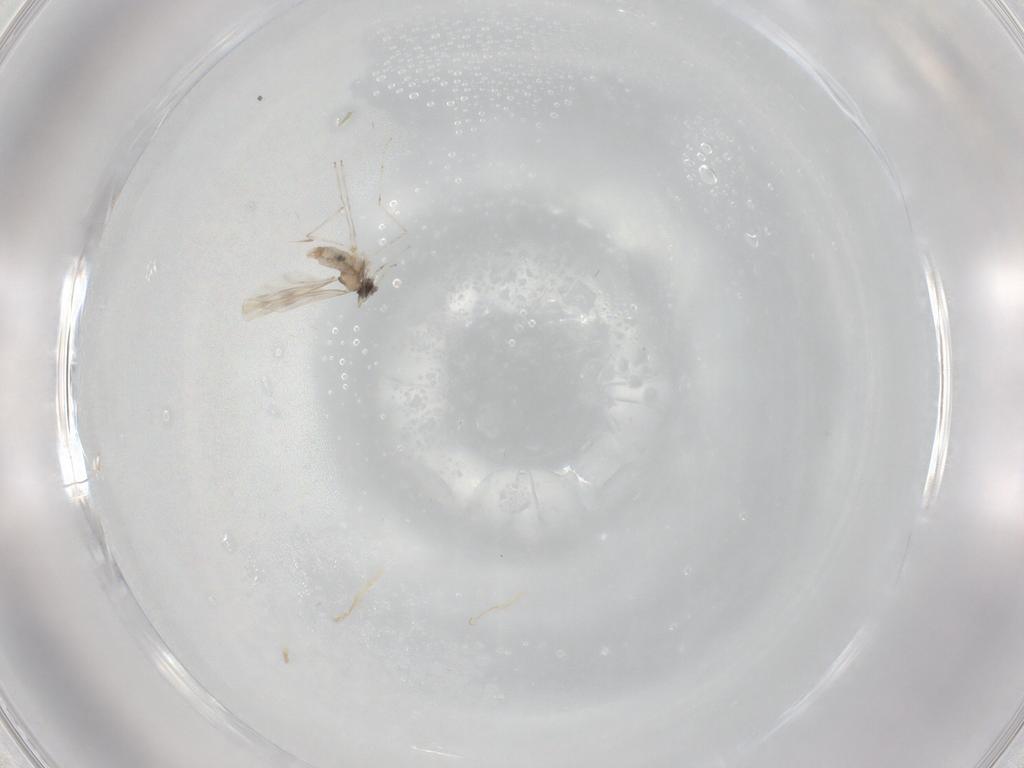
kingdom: Animalia
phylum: Arthropoda
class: Insecta
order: Diptera
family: Cecidomyiidae
